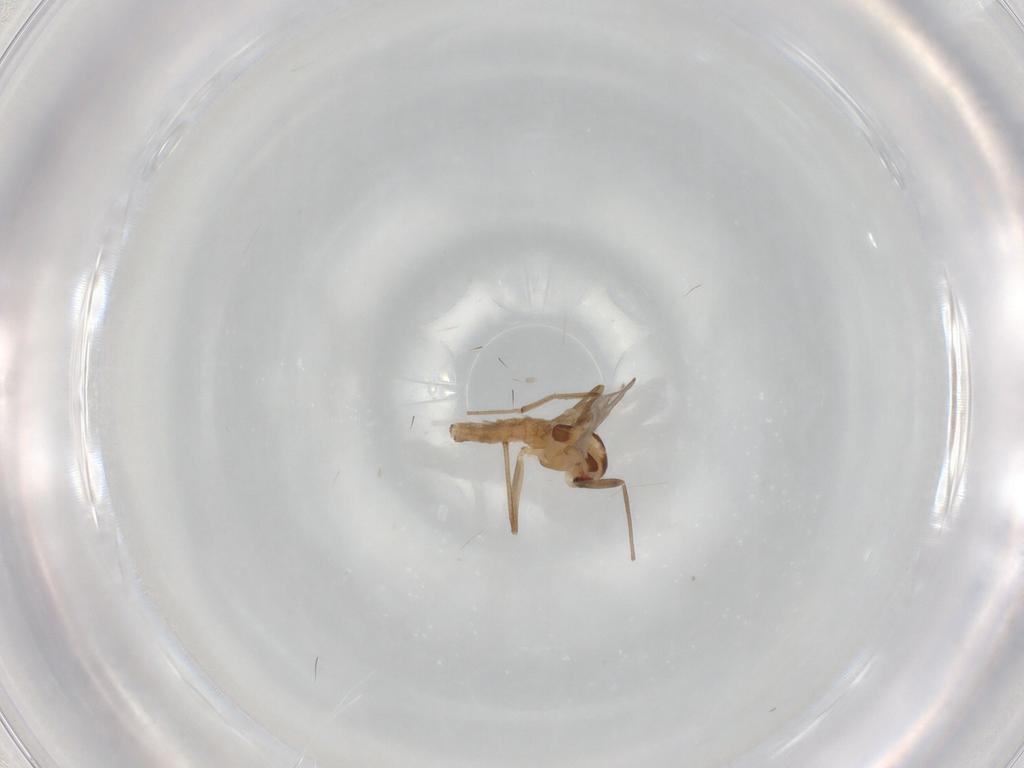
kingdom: Animalia
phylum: Arthropoda
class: Insecta
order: Diptera
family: Chironomidae
